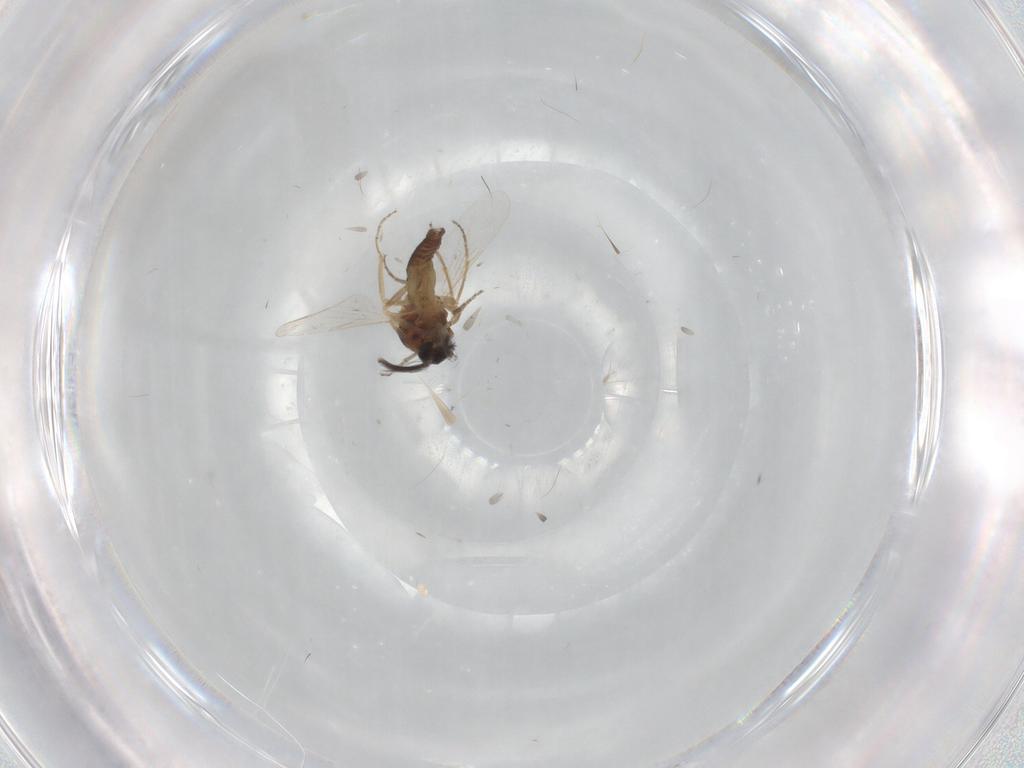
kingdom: Animalia
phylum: Arthropoda
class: Insecta
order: Diptera
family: Ceratopogonidae
